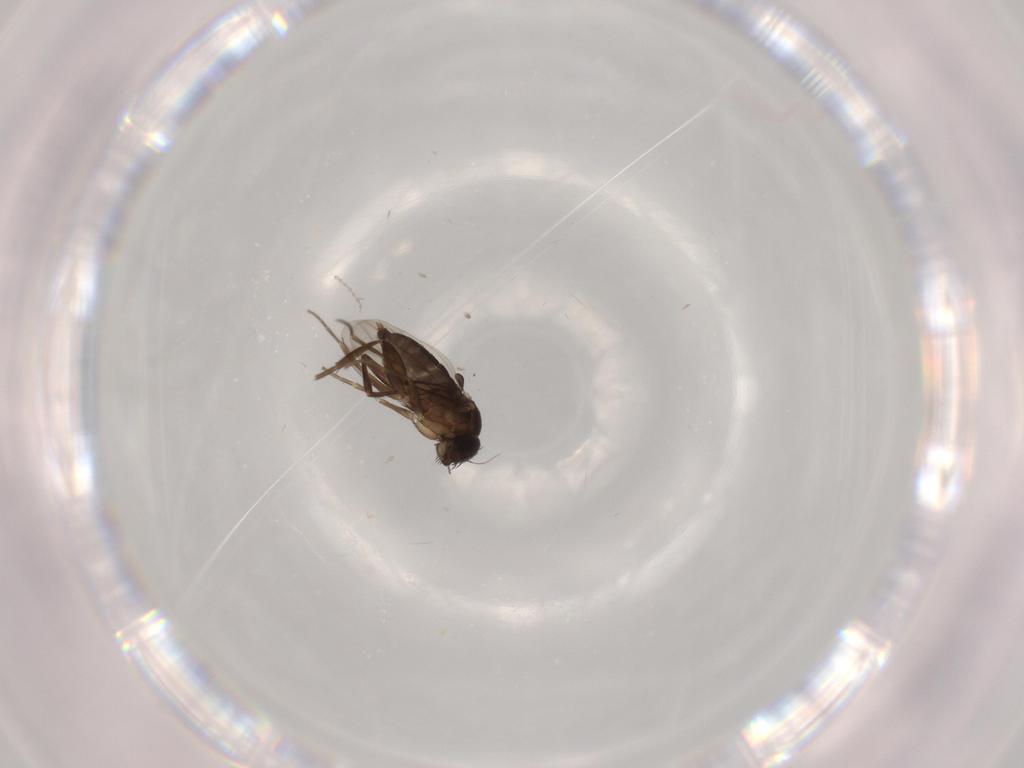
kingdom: Animalia
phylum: Arthropoda
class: Insecta
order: Diptera
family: Phoridae
